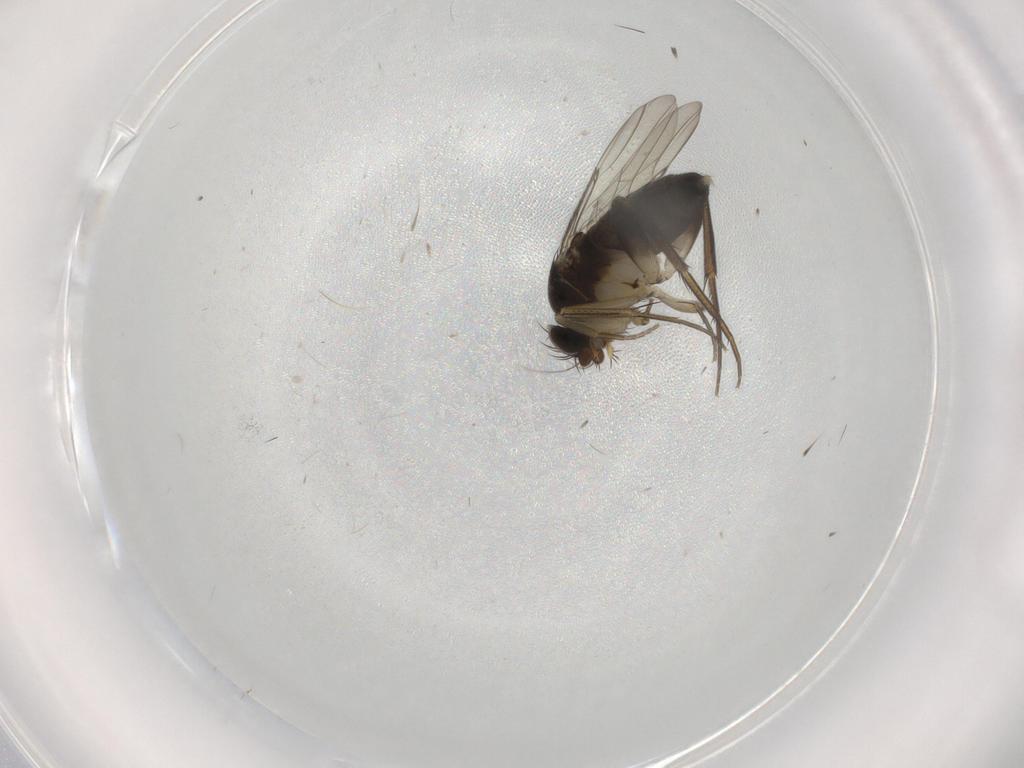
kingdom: Animalia
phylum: Arthropoda
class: Insecta
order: Diptera
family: Phoridae
